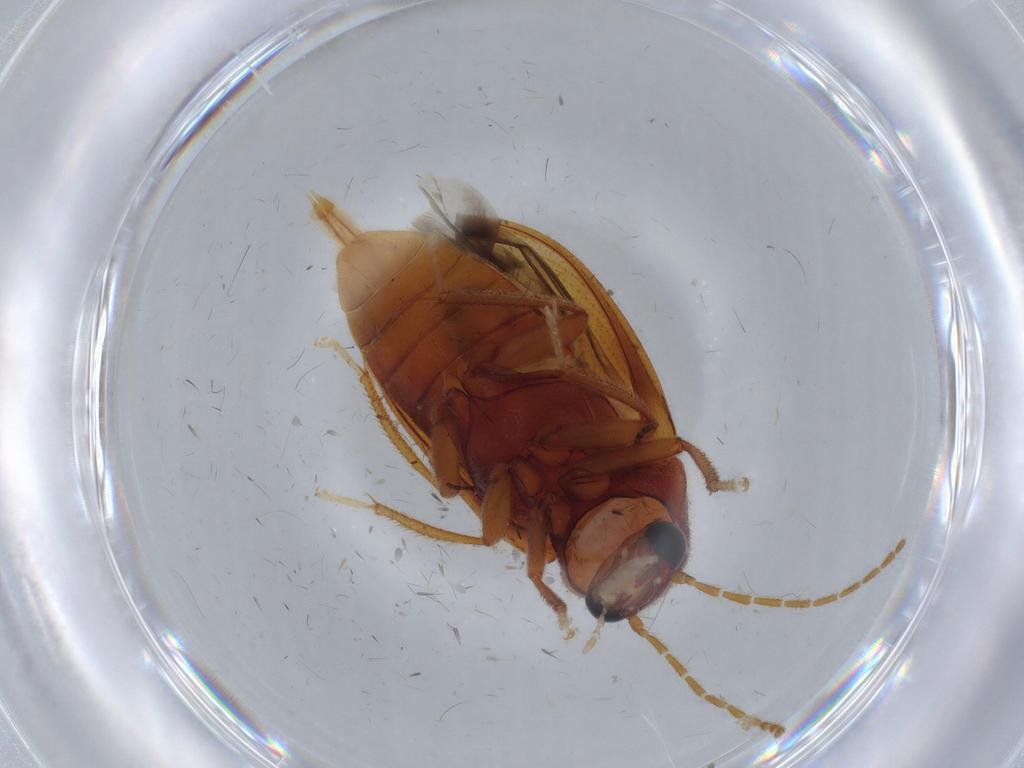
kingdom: Animalia
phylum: Arthropoda
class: Insecta
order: Coleoptera
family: Ptilodactylidae
